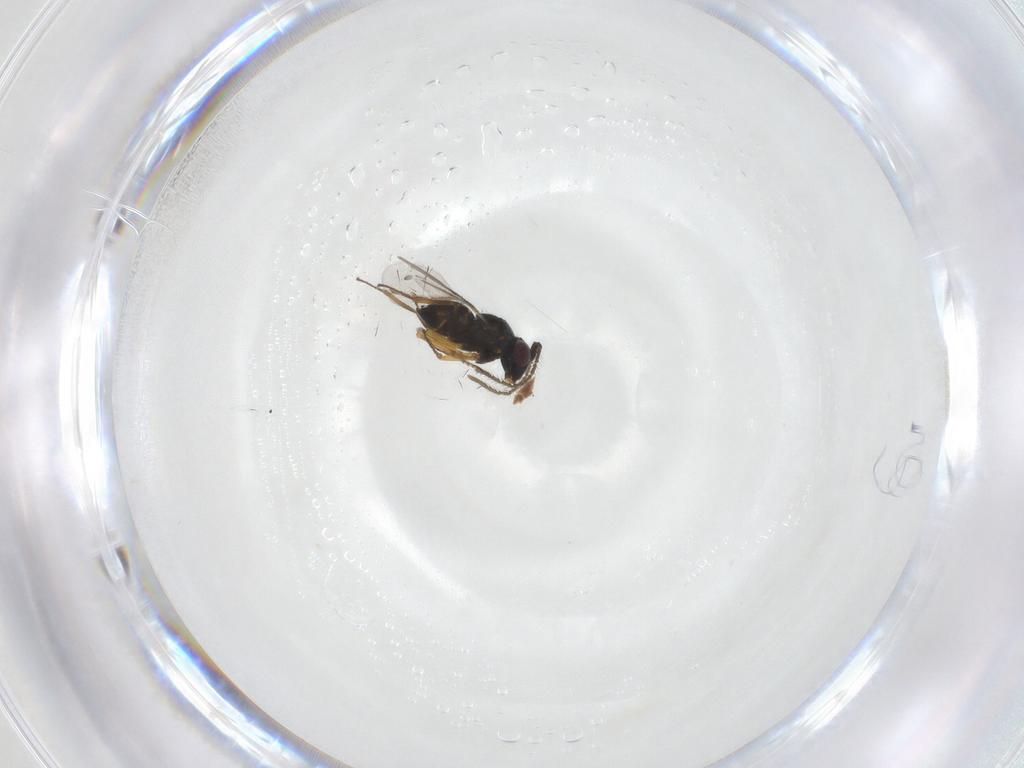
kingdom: Animalia
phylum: Arthropoda
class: Insecta
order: Hymenoptera
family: Encyrtidae
